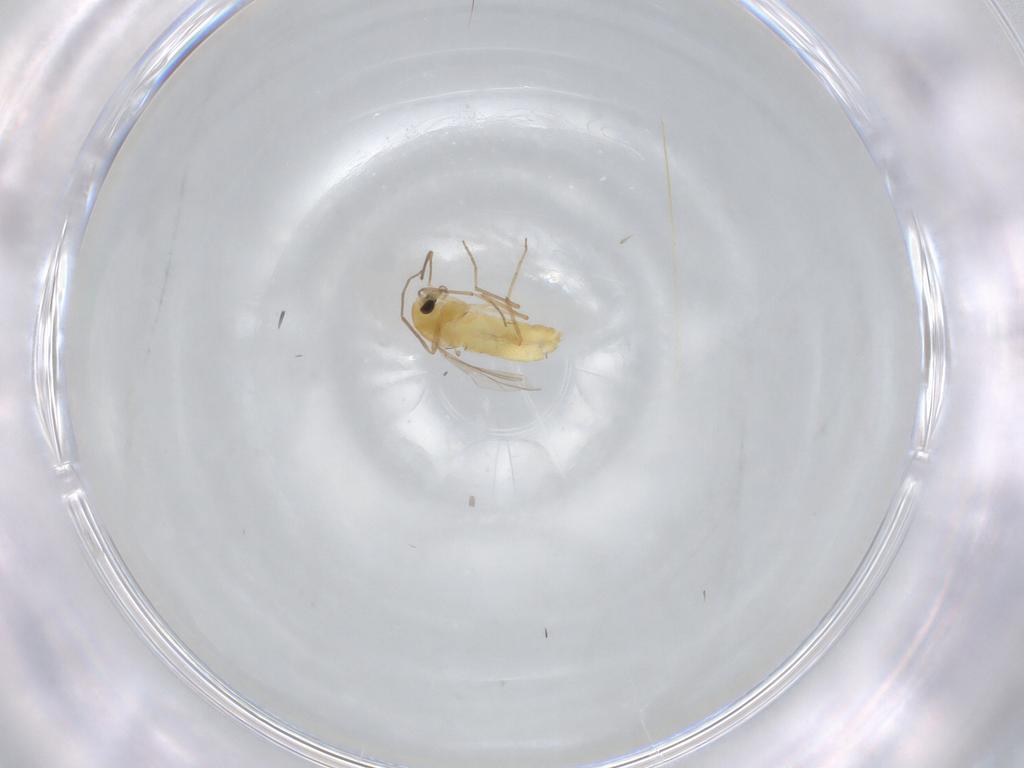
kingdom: Animalia
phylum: Arthropoda
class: Insecta
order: Diptera
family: Chironomidae
